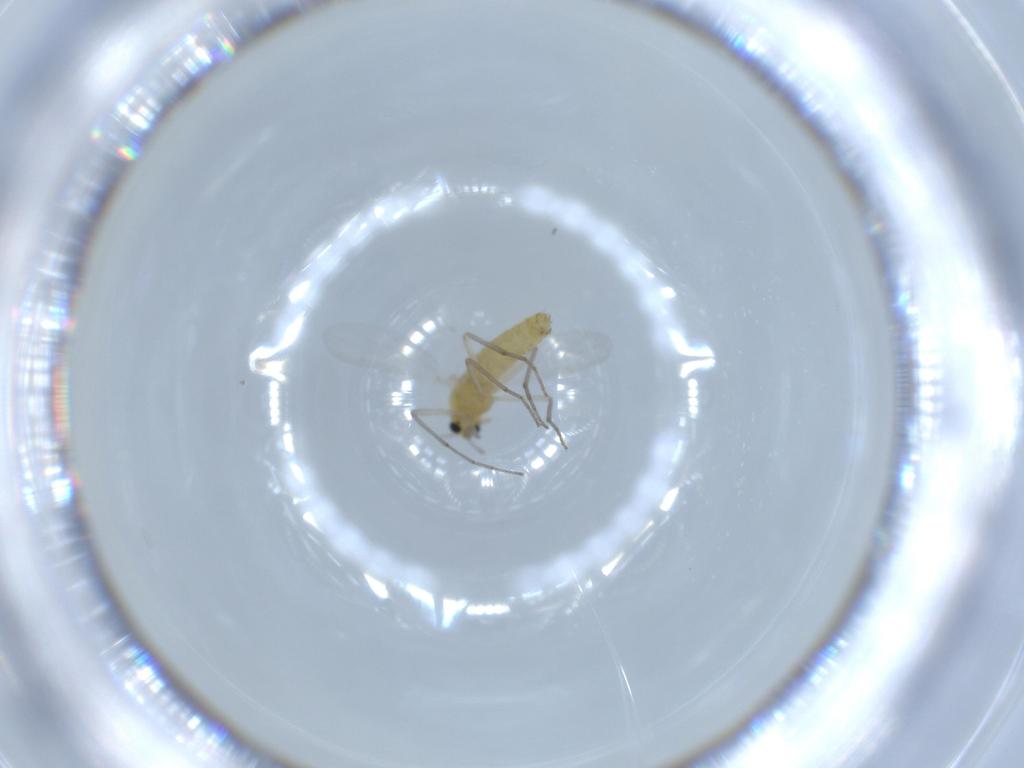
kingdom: Animalia
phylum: Arthropoda
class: Insecta
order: Diptera
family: Chironomidae
